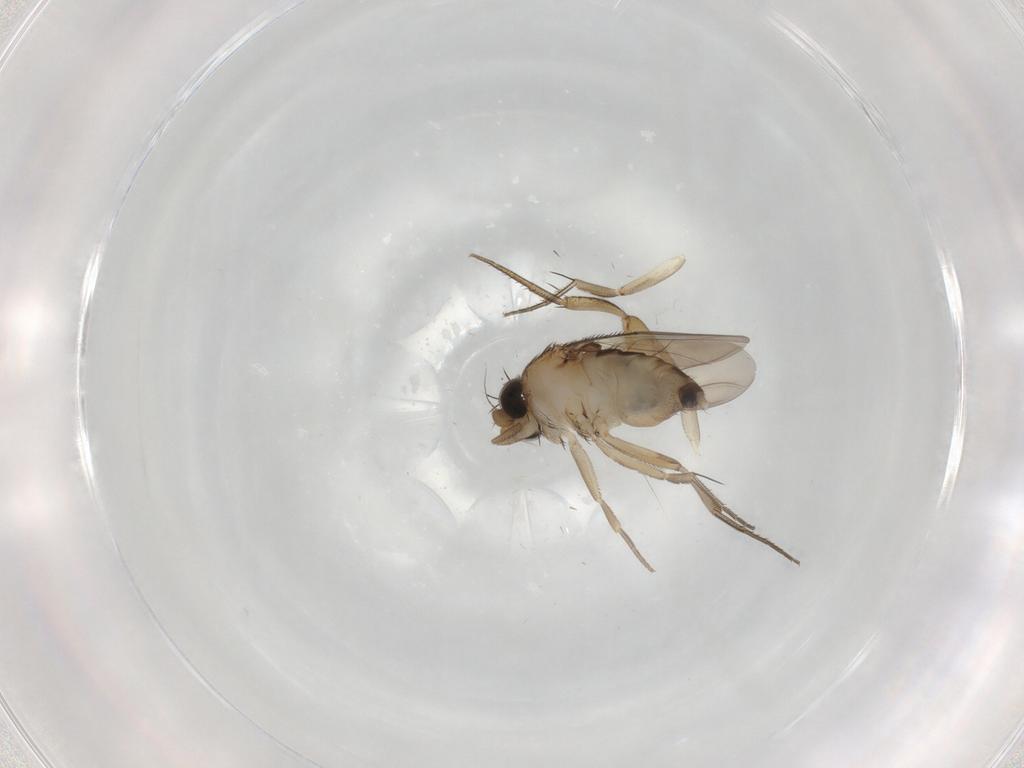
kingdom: Animalia
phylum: Arthropoda
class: Insecta
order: Diptera
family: Phoridae
